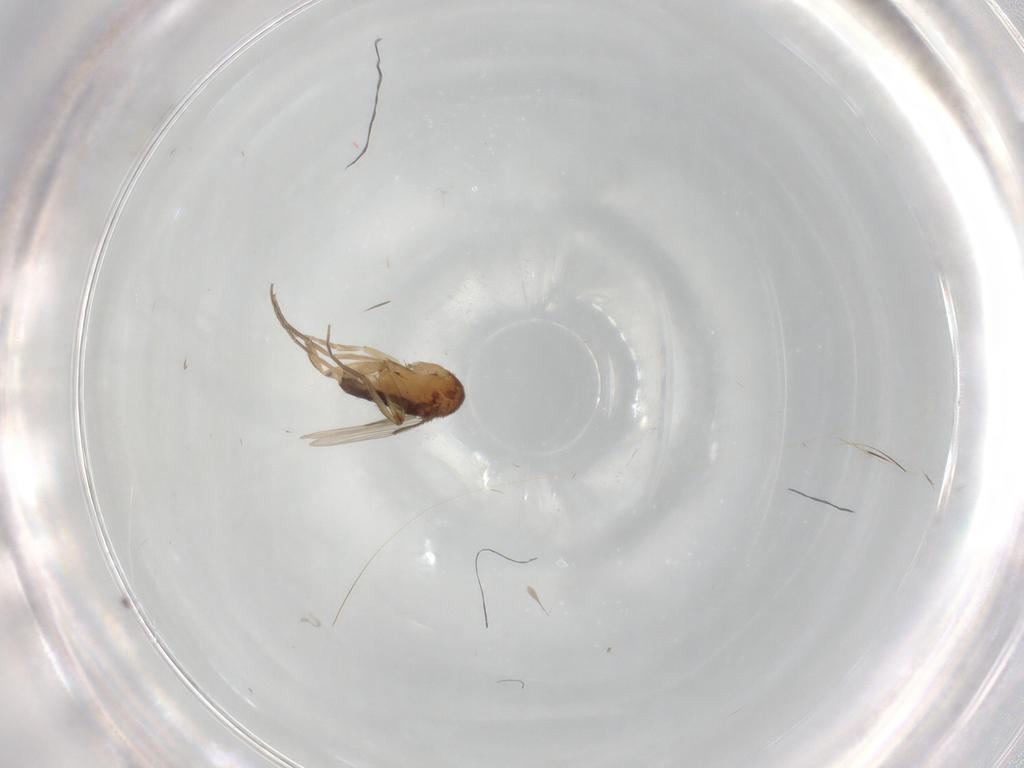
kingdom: Animalia
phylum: Arthropoda
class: Insecta
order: Diptera
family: Phoridae
